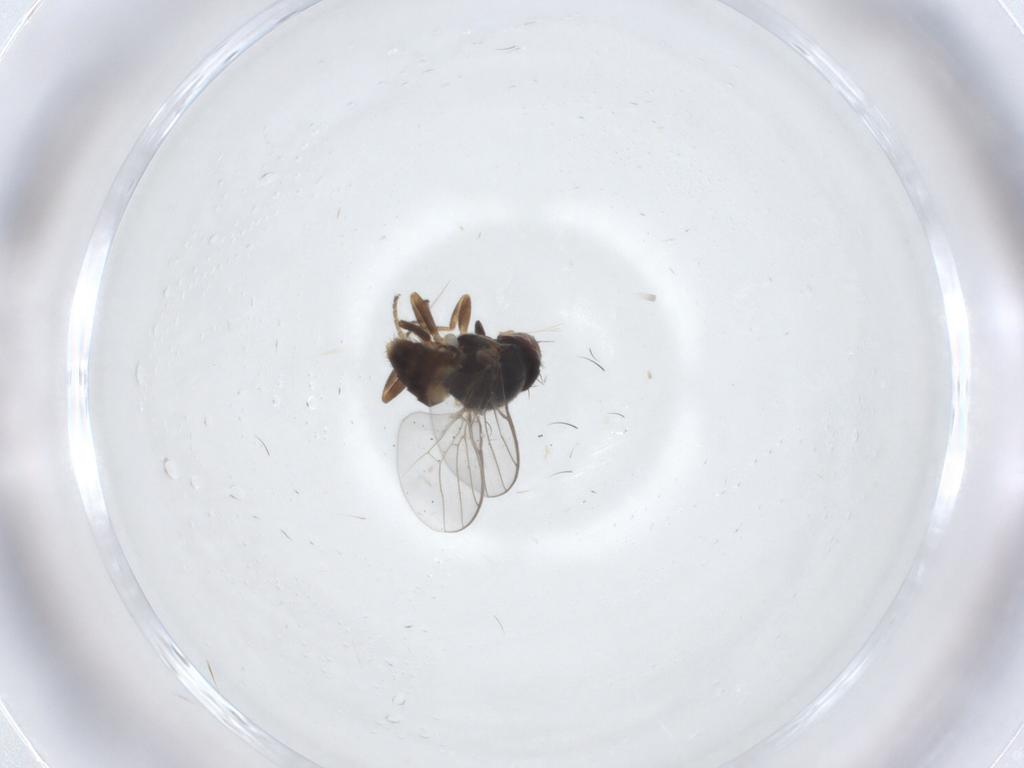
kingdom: Animalia
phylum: Arthropoda
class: Insecta
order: Diptera
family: Chloropidae
